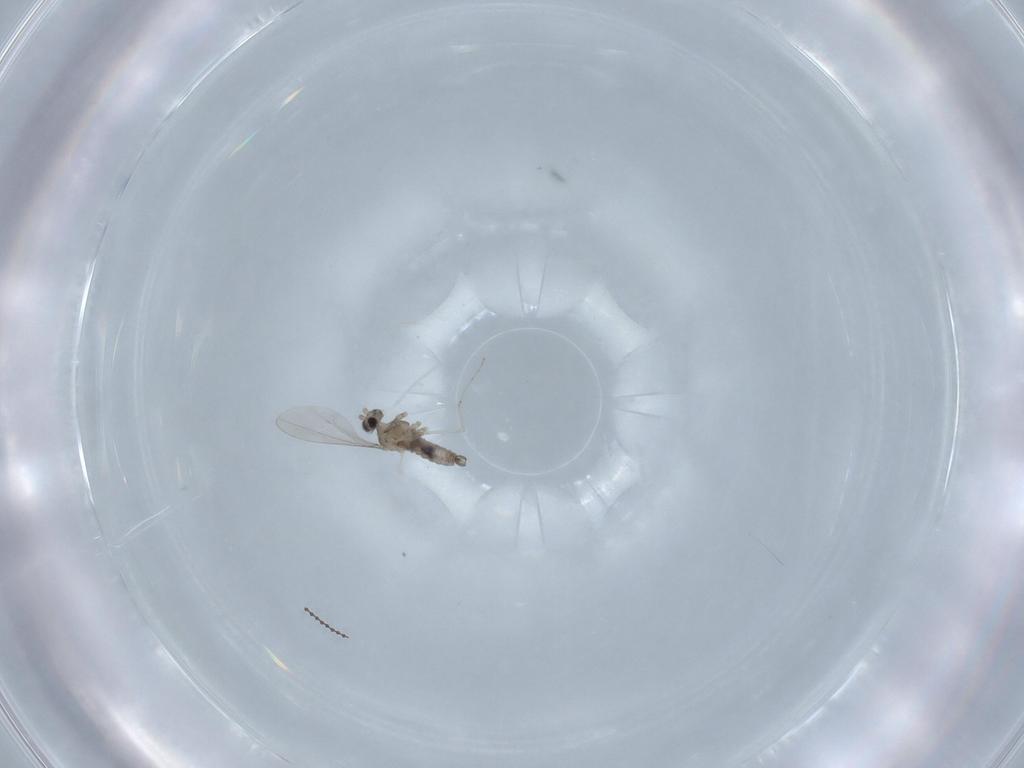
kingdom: Animalia
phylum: Arthropoda
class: Insecta
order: Diptera
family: Cecidomyiidae
